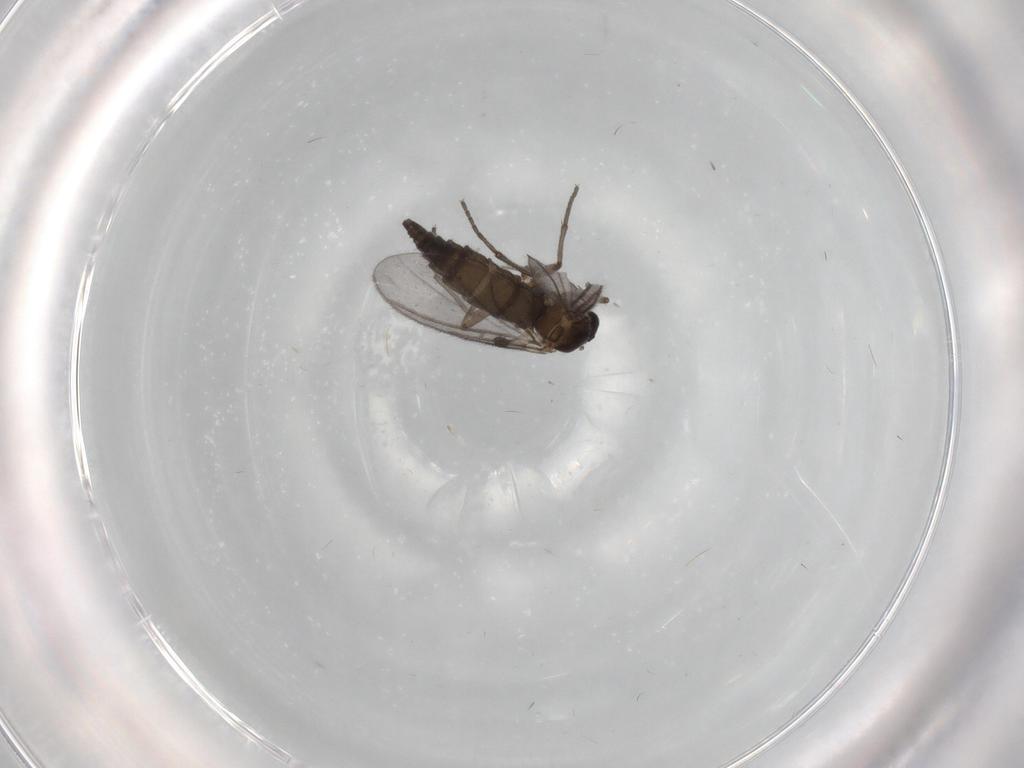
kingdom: Animalia
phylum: Arthropoda
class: Insecta
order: Diptera
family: Sciaridae
